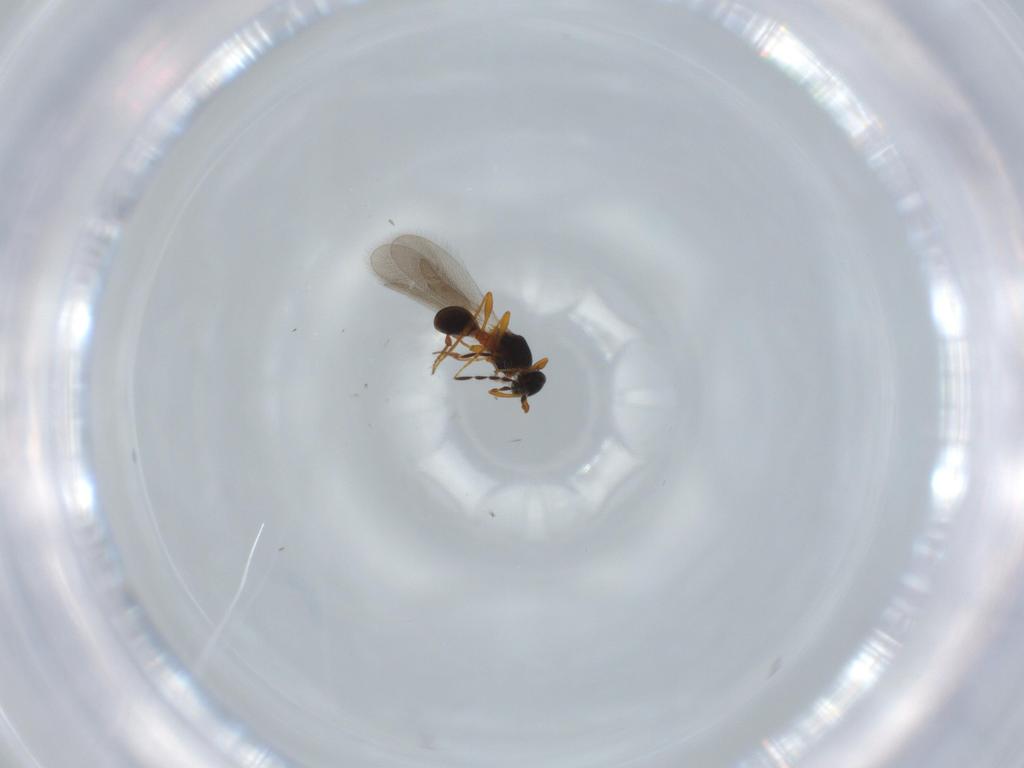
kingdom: Animalia
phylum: Arthropoda
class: Insecta
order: Hymenoptera
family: Platygastridae
